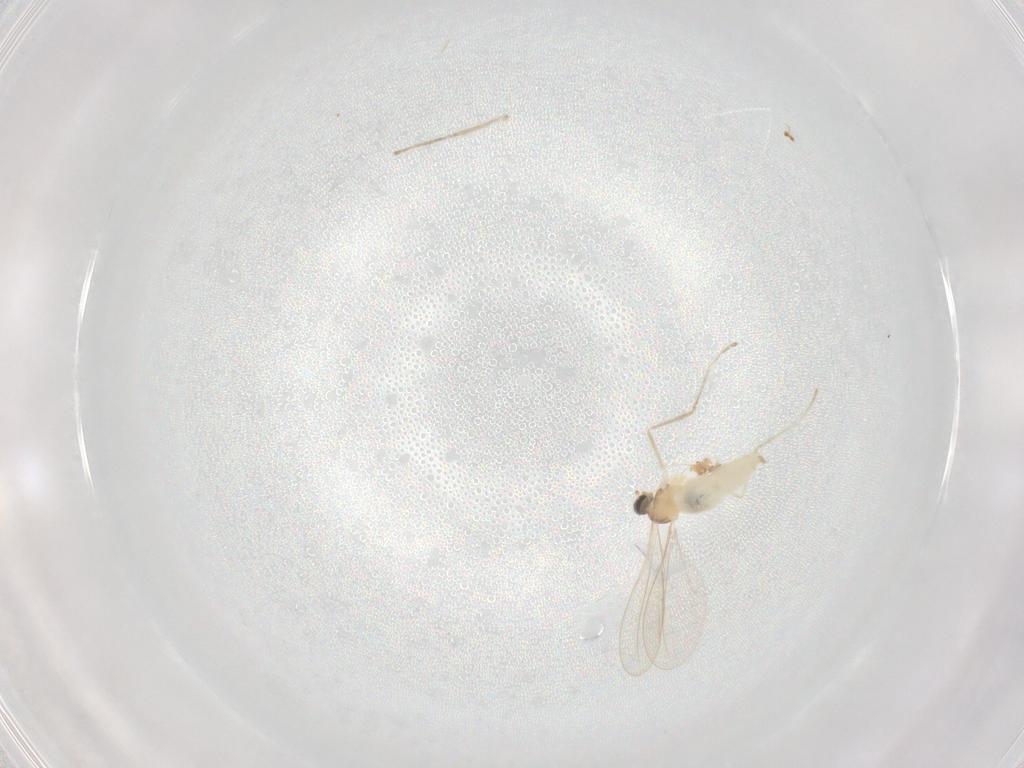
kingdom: Animalia
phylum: Arthropoda
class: Insecta
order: Diptera
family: Cecidomyiidae
